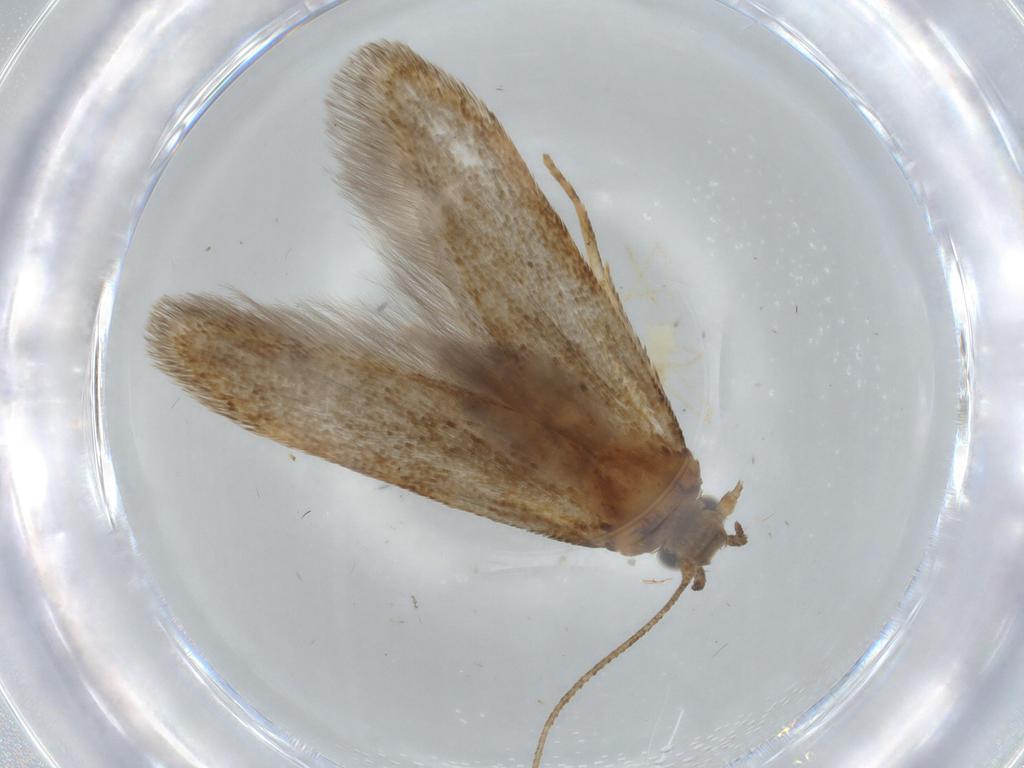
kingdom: Animalia
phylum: Arthropoda
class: Insecta
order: Lepidoptera
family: Coleophoridae
